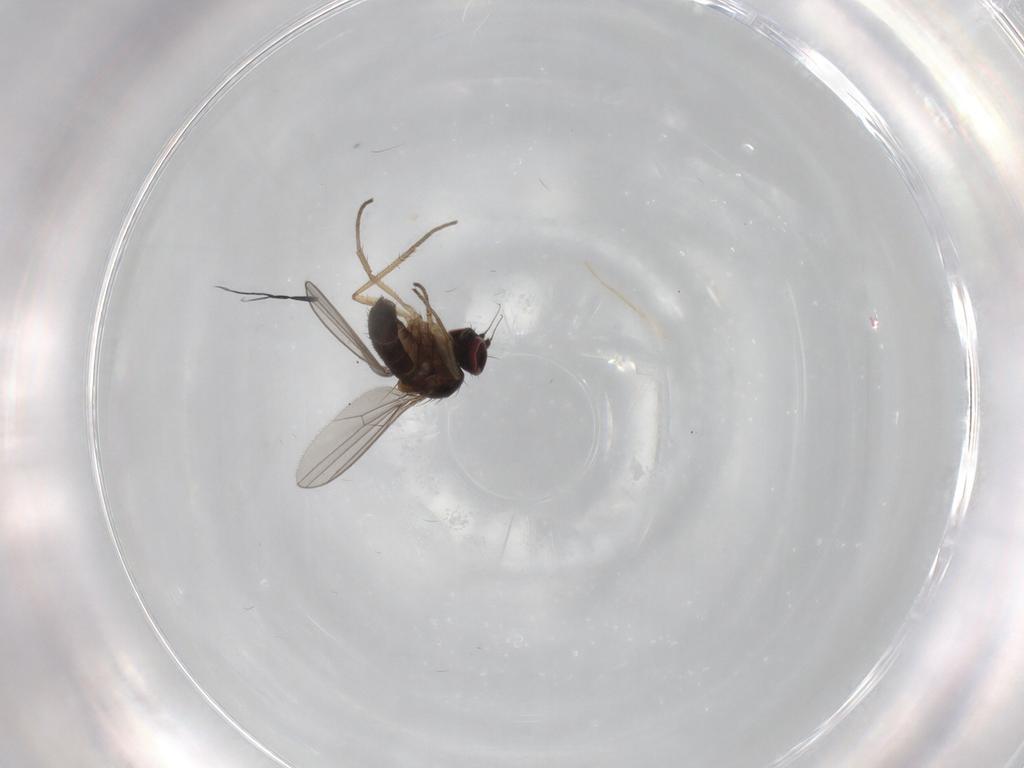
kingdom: Animalia
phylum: Arthropoda
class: Insecta
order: Diptera
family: Dolichopodidae
